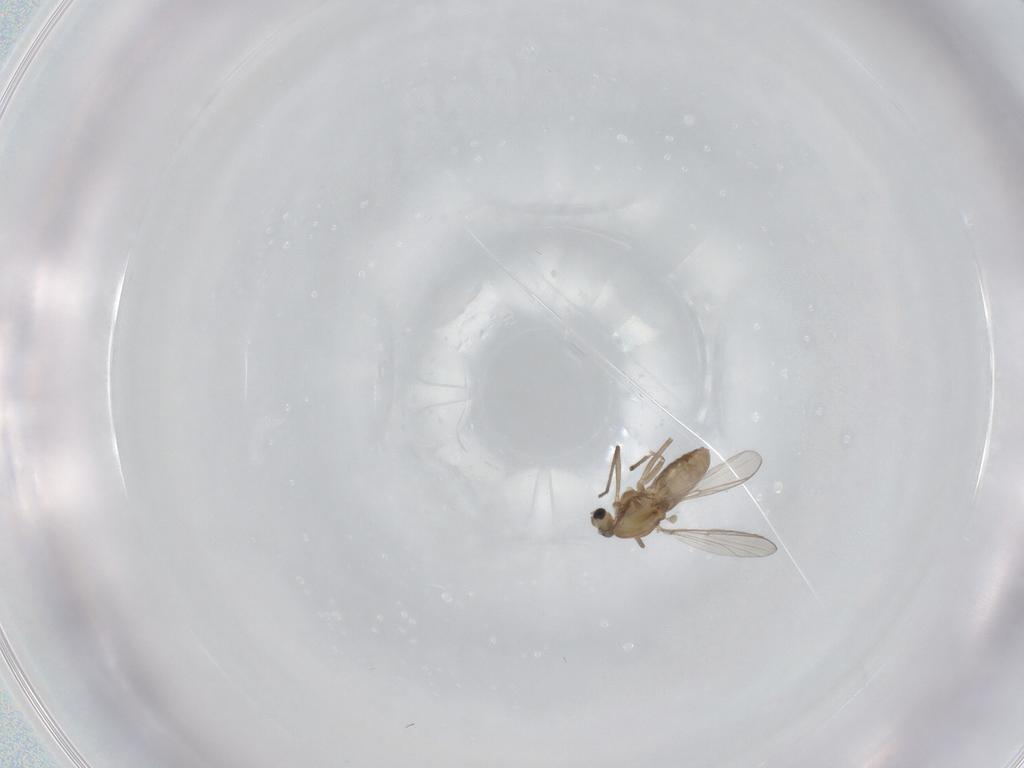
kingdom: Animalia
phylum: Arthropoda
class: Insecta
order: Diptera
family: Chironomidae
